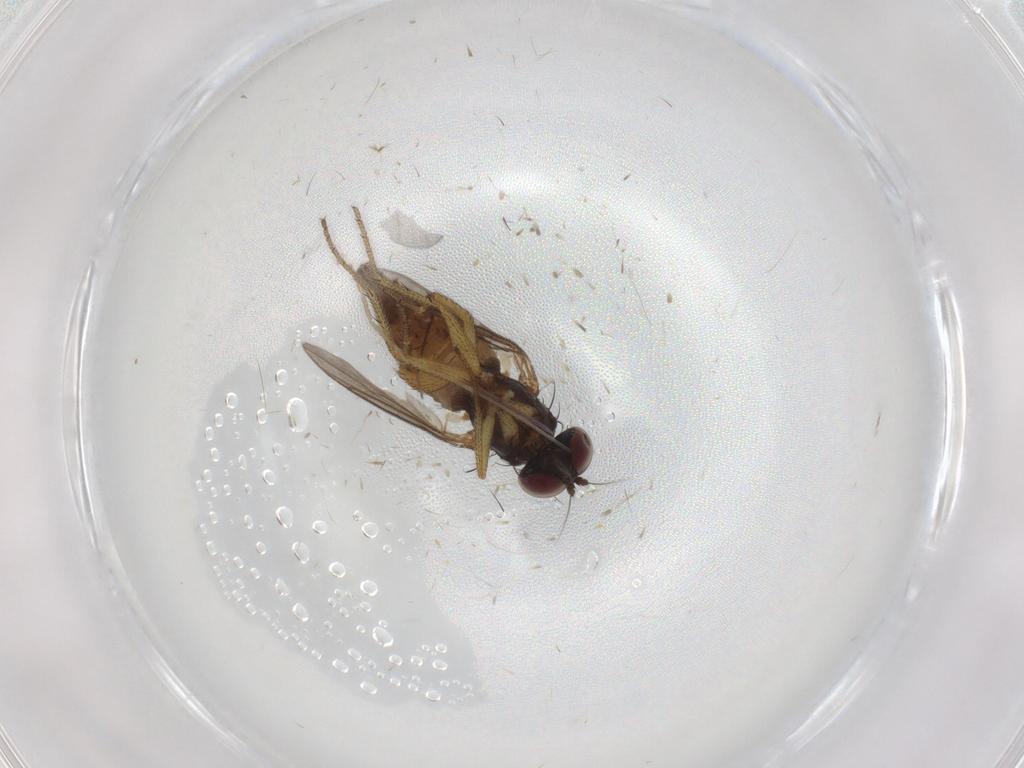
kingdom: Animalia
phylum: Arthropoda
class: Insecta
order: Diptera
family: Dolichopodidae
